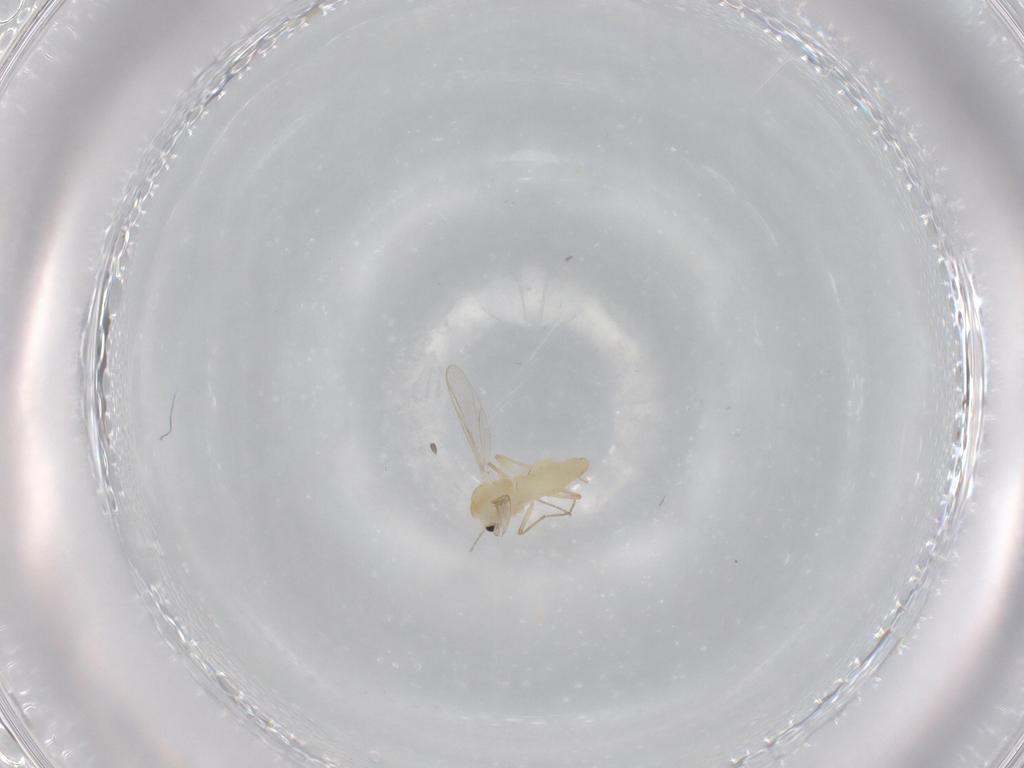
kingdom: Animalia
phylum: Arthropoda
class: Insecta
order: Diptera
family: Chironomidae
